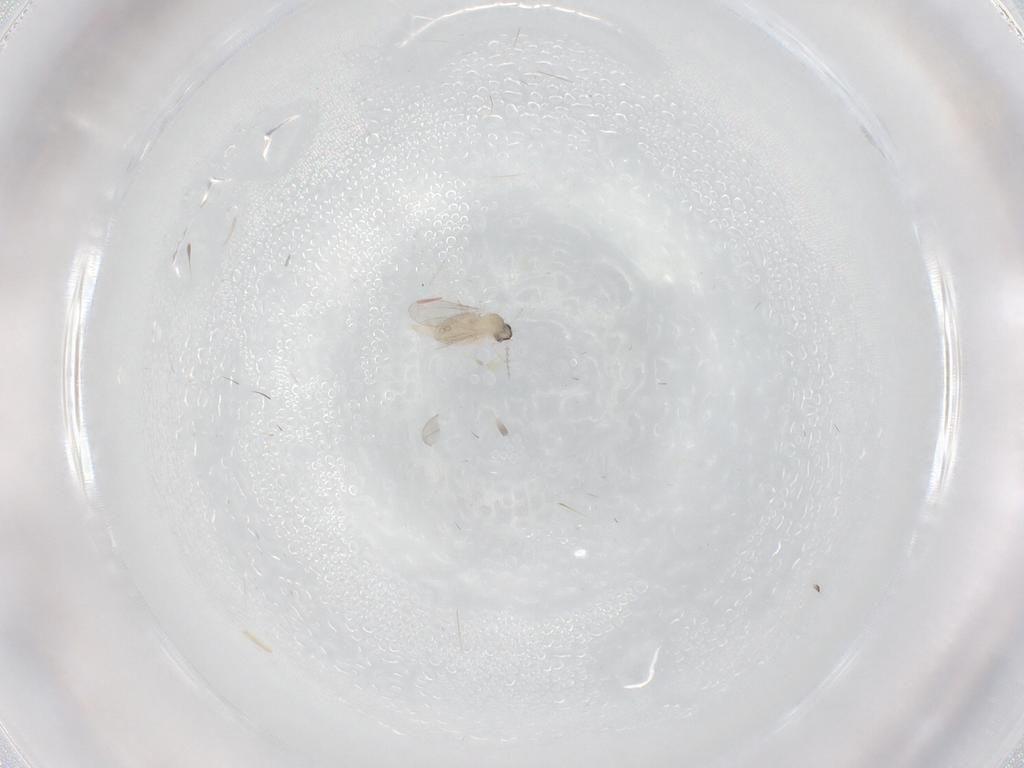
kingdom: Animalia
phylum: Arthropoda
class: Insecta
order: Diptera
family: Cecidomyiidae
